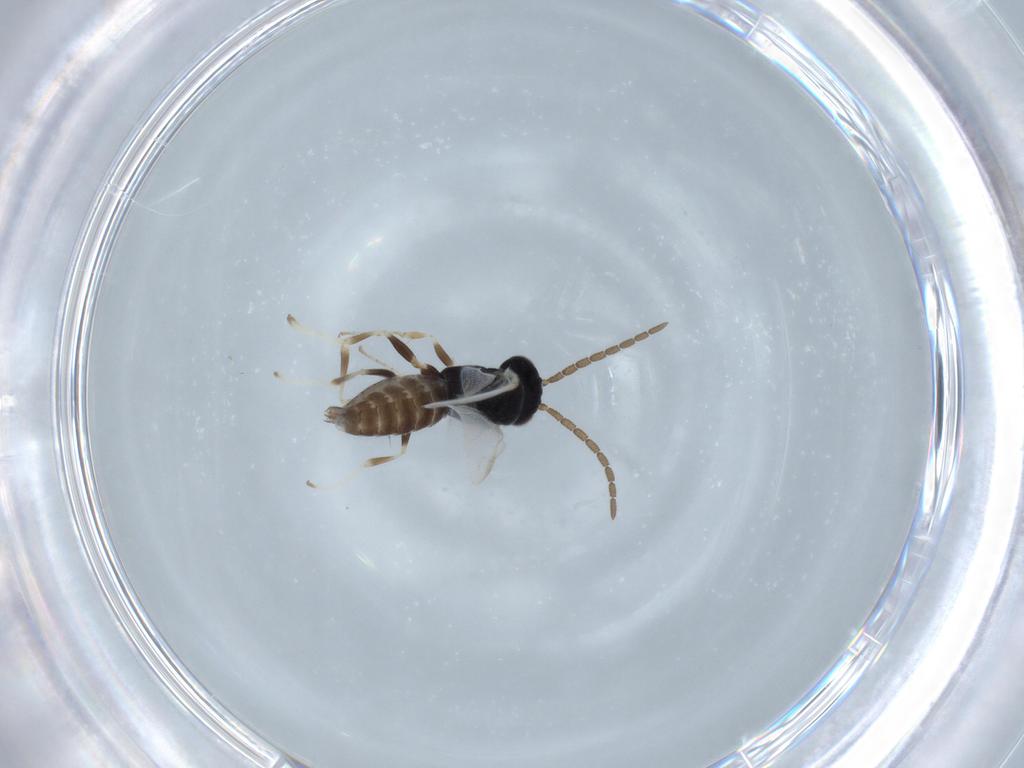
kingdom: Animalia
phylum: Arthropoda
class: Insecta
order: Hymenoptera
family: Dryinidae
